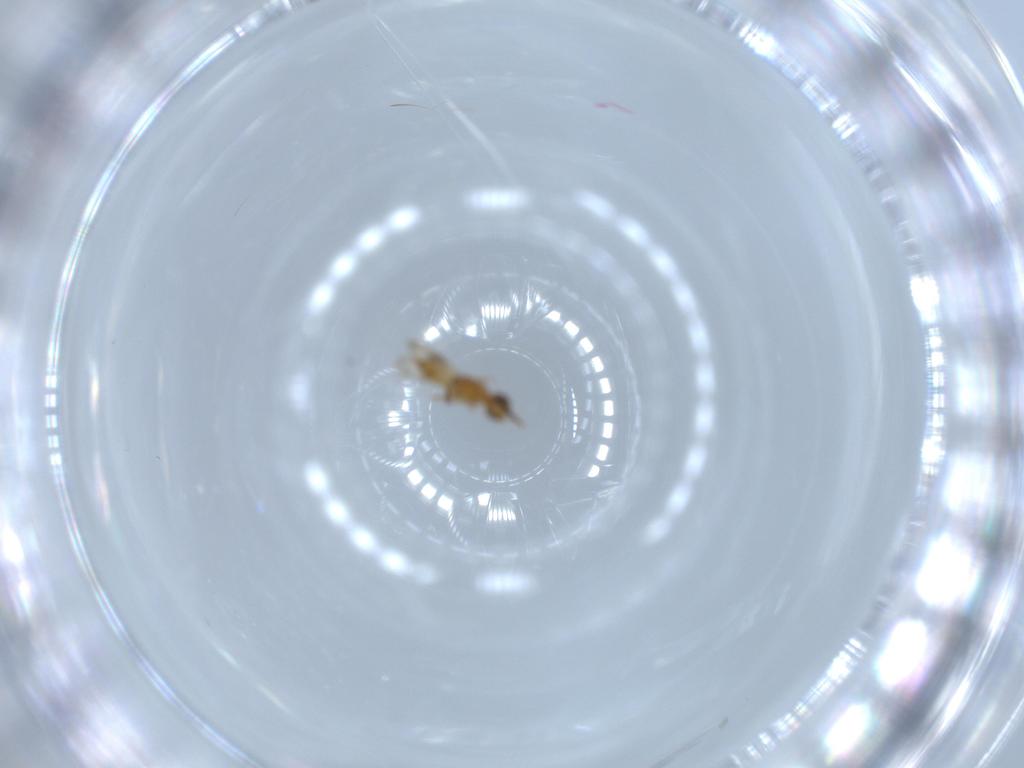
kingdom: Animalia
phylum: Arthropoda
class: Insecta
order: Hymenoptera
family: Ceraphronidae
